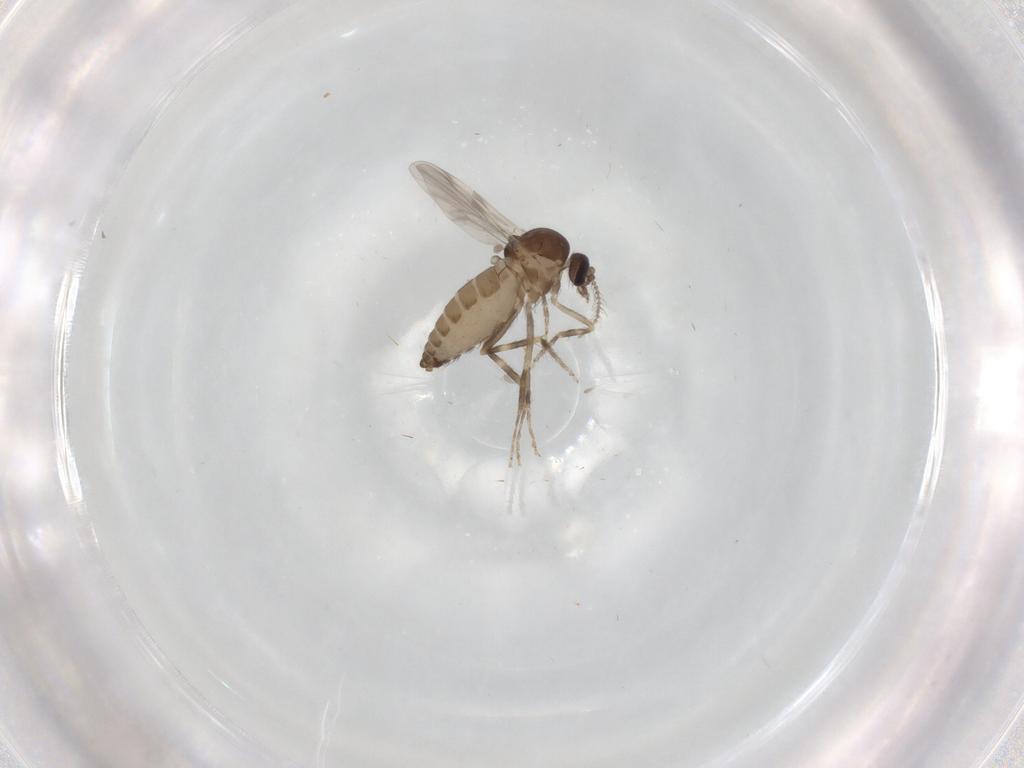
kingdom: Animalia
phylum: Arthropoda
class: Insecta
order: Diptera
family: Ceratopogonidae
